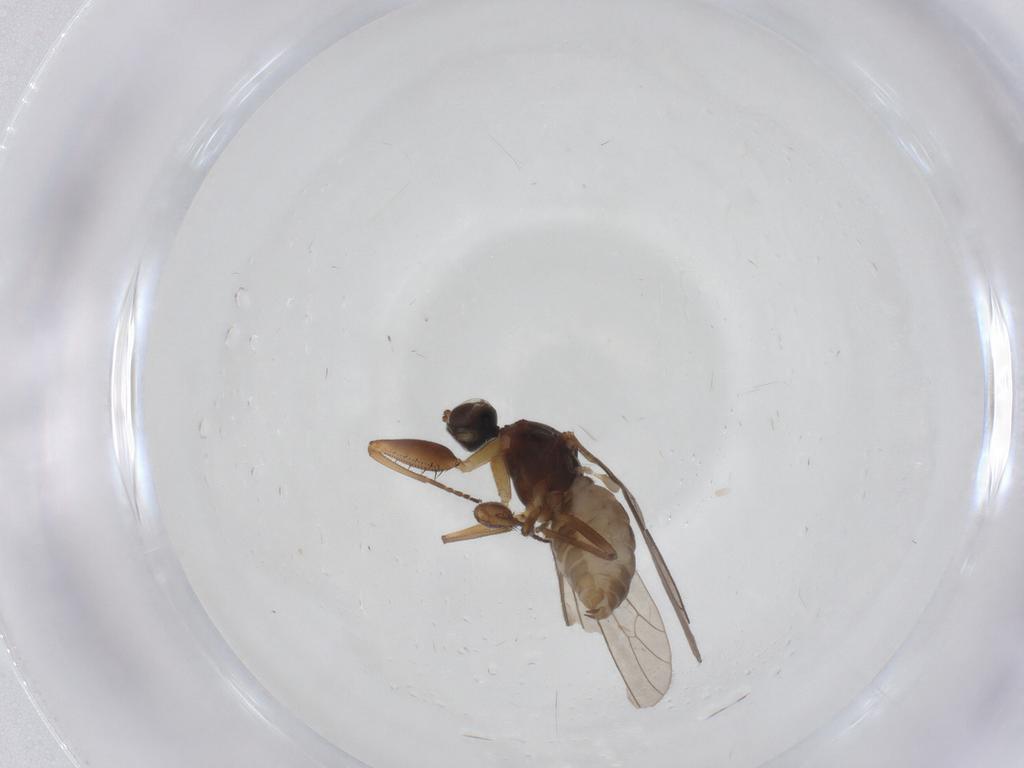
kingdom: Animalia
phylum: Arthropoda
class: Insecta
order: Diptera
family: Empididae
